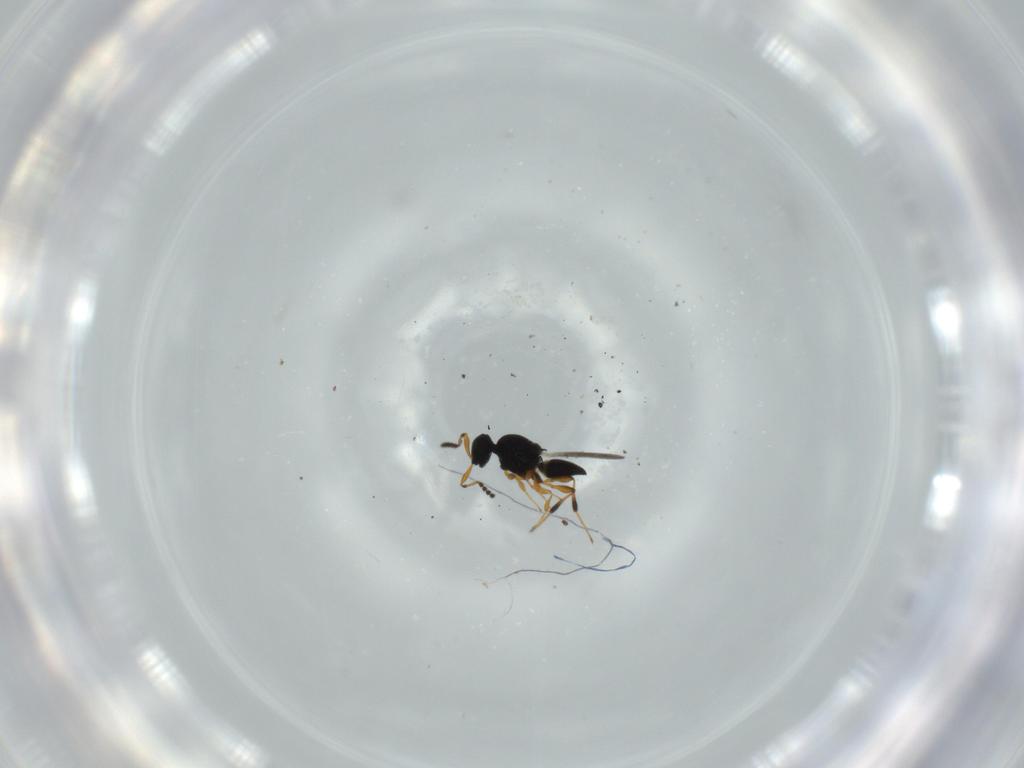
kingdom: Animalia
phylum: Arthropoda
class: Insecta
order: Hymenoptera
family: Platygastridae
